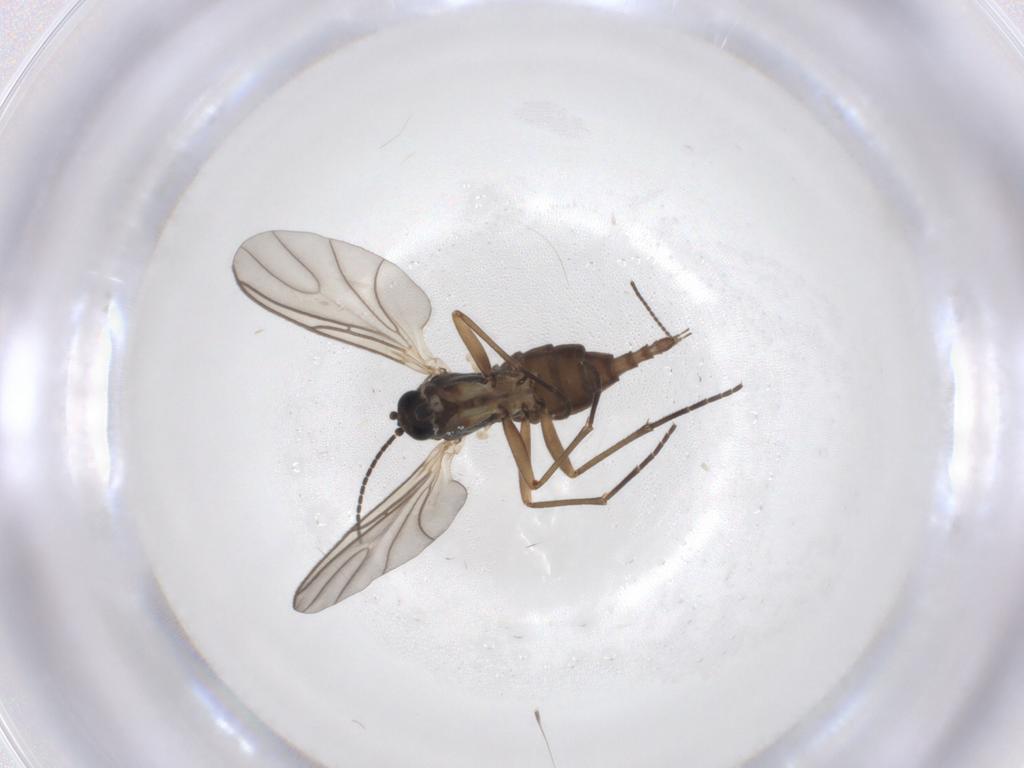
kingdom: Animalia
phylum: Arthropoda
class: Insecta
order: Diptera
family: Sciaridae
